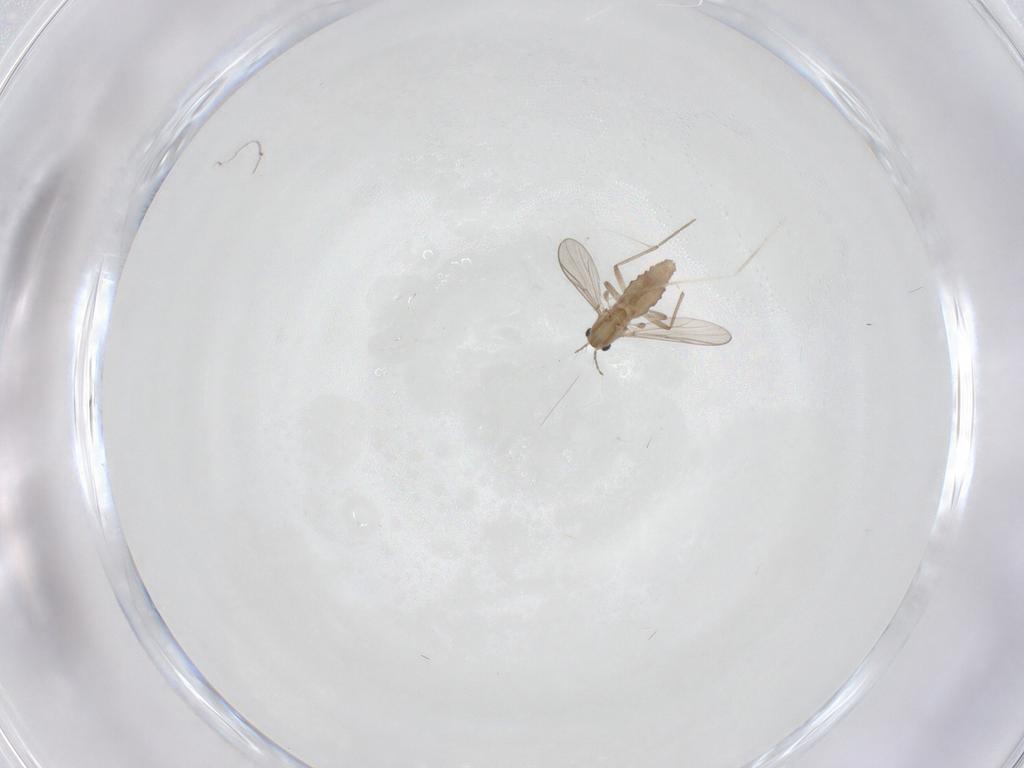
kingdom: Animalia
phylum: Arthropoda
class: Insecta
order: Diptera
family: Chironomidae
